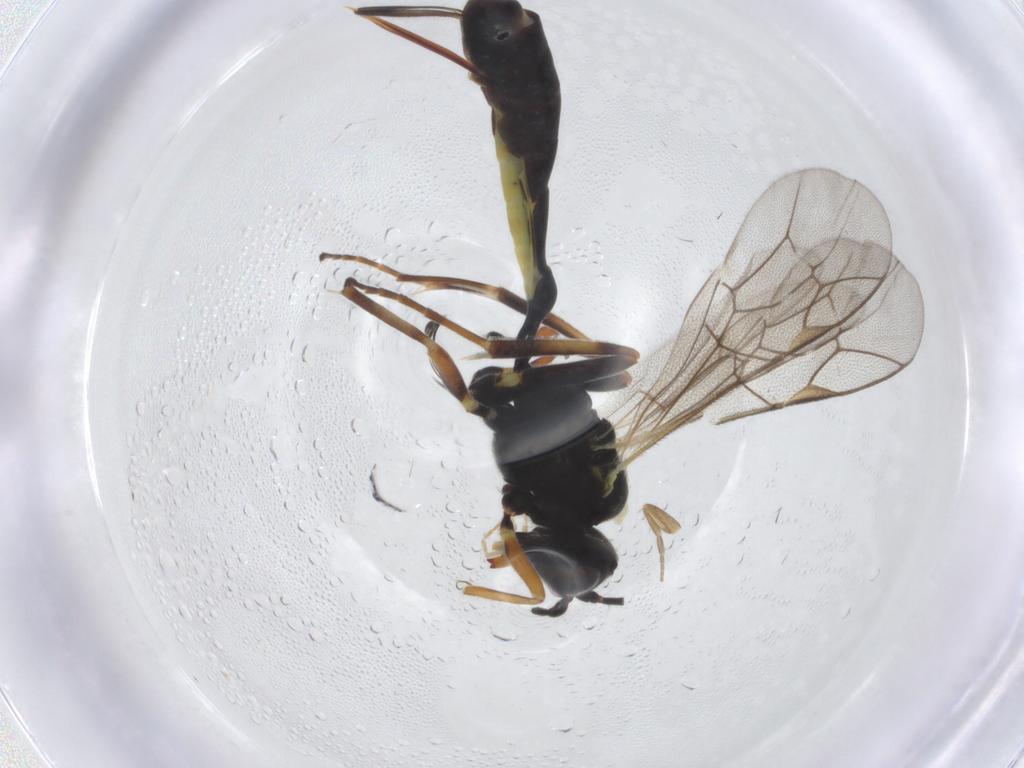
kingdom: Animalia
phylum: Arthropoda
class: Insecta
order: Hymenoptera
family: Ichneumonidae
